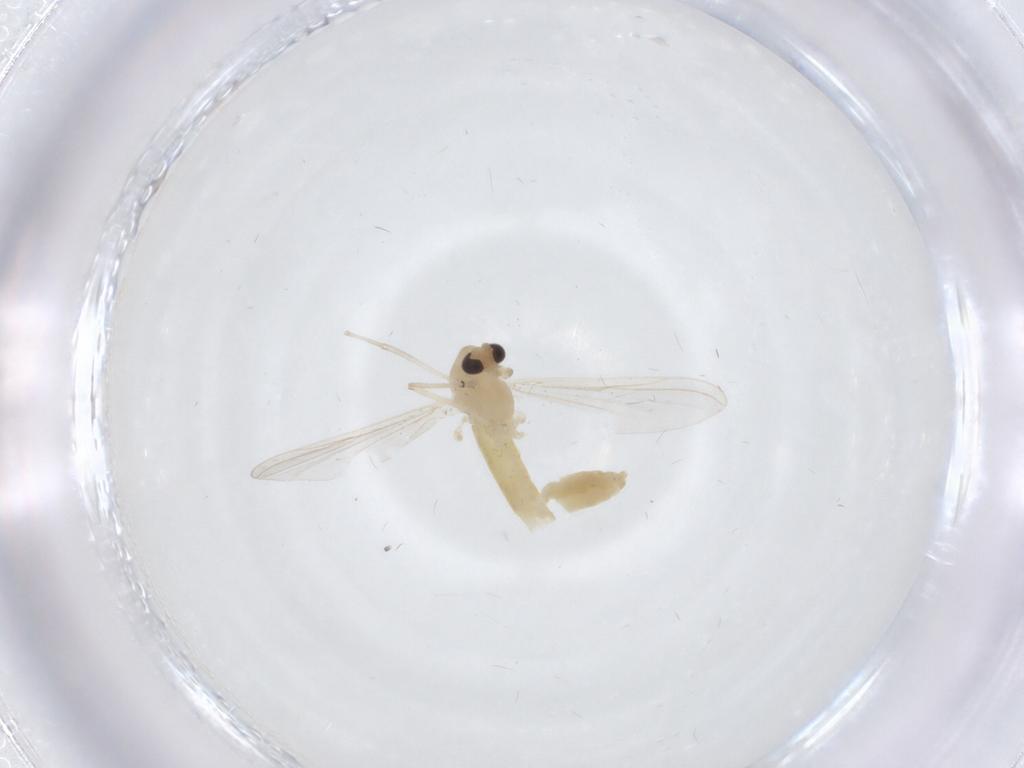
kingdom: Animalia
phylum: Arthropoda
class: Insecta
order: Diptera
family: Chironomidae
